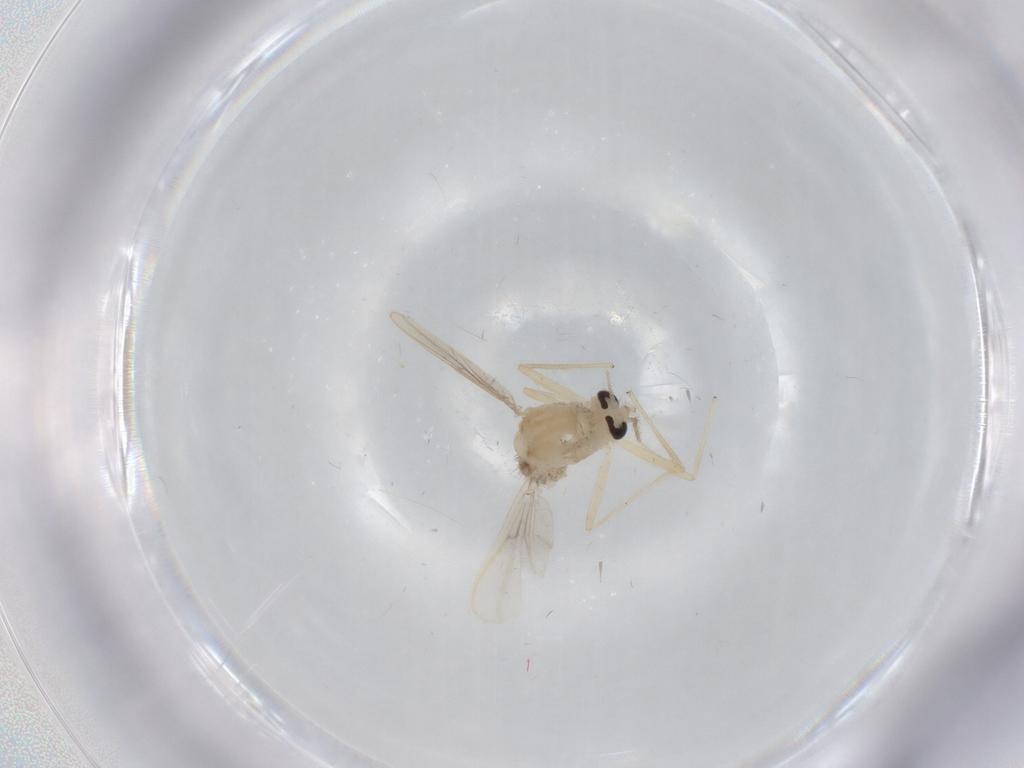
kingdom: Animalia
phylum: Arthropoda
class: Insecta
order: Diptera
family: Chironomidae
